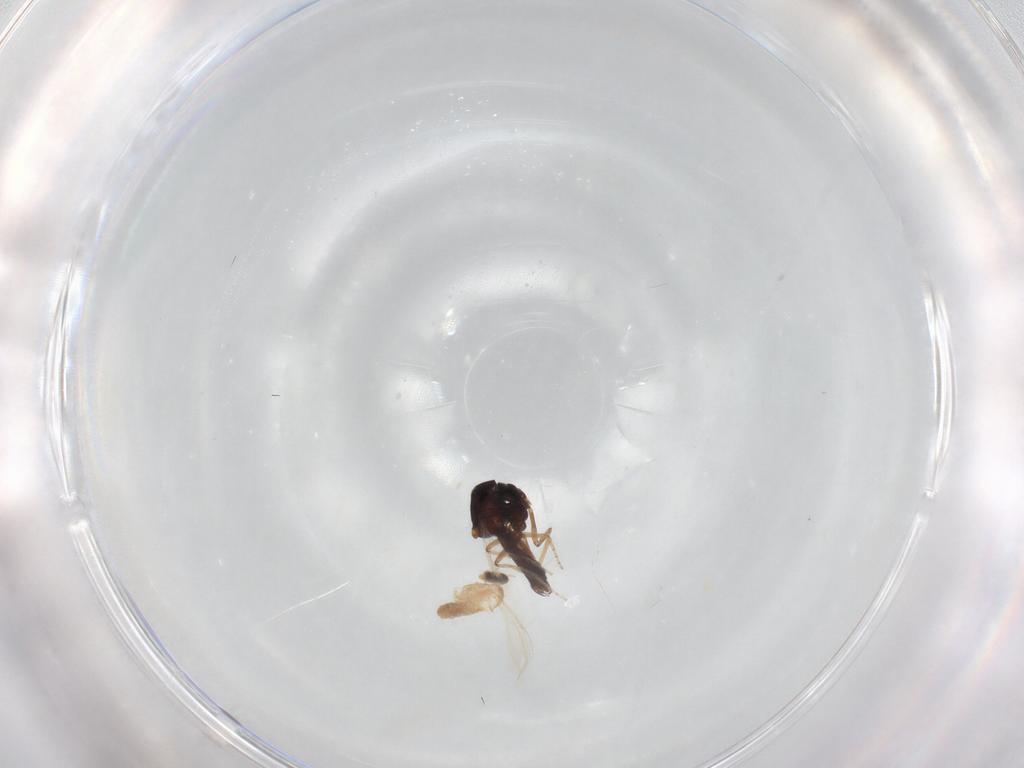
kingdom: Animalia
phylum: Arthropoda
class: Insecta
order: Diptera
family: Cecidomyiidae
